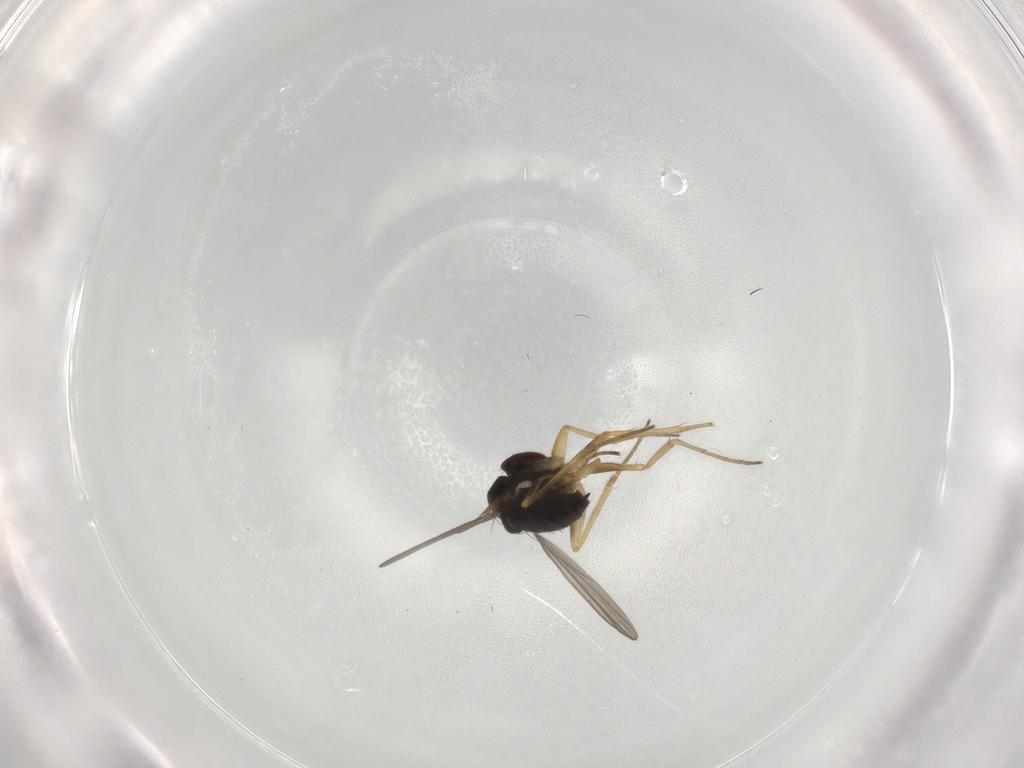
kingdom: Animalia
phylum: Arthropoda
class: Insecta
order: Diptera
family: Dolichopodidae
